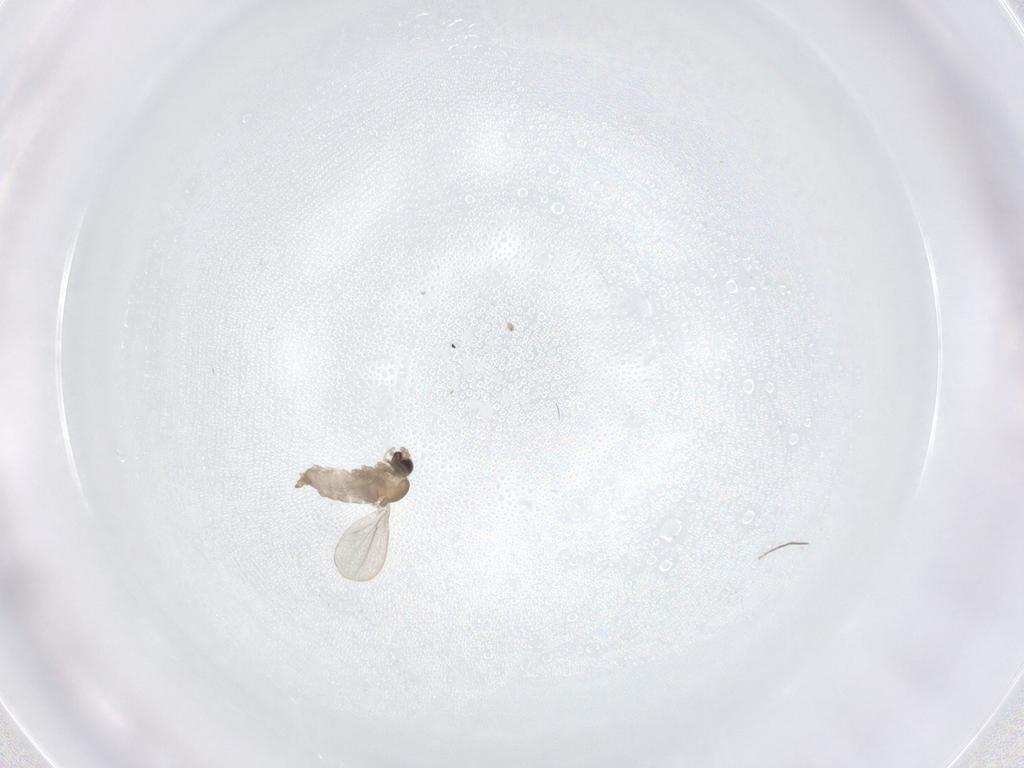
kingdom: Animalia
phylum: Arthropoda
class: Insecta
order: Diptera
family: Cecidomyiidae
